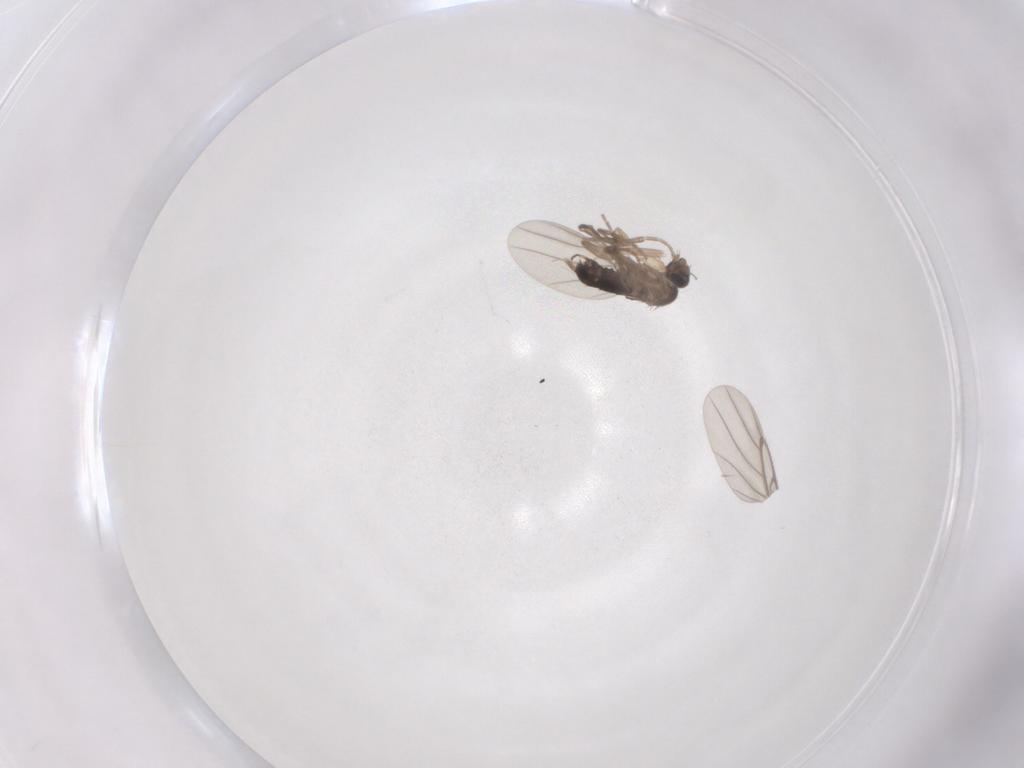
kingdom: Animalia
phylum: Arthropoda
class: Insecta
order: Diptera
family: Phoridae
